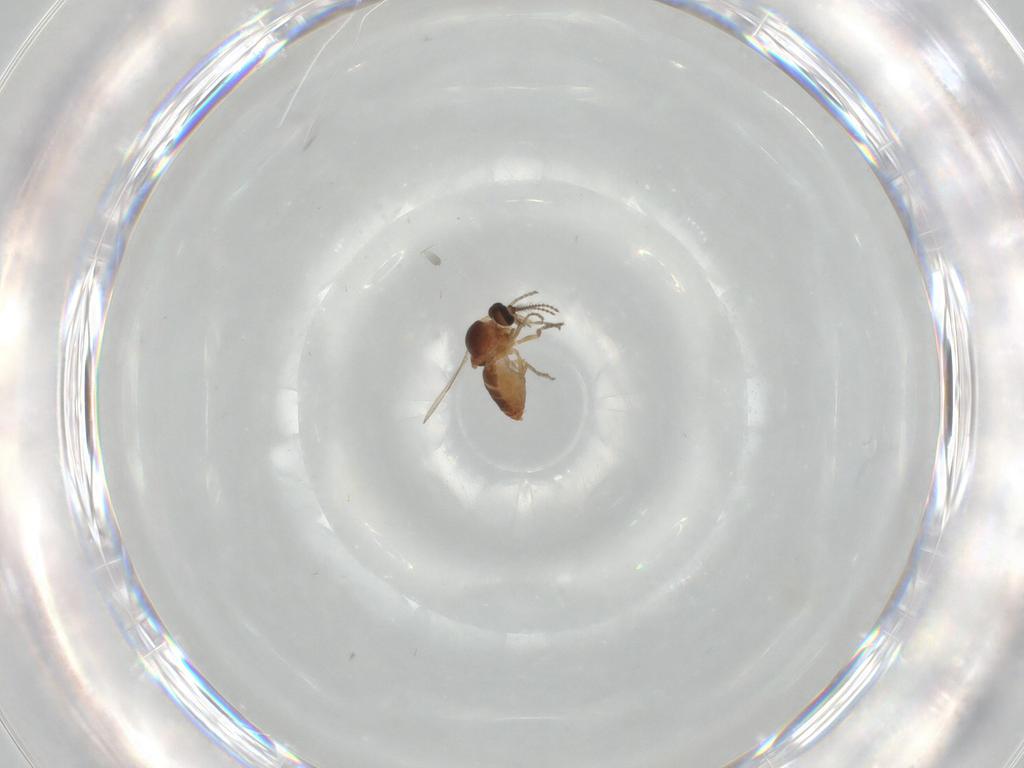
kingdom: Animalia
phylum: Arthropoda
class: Insecta
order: Diptera
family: Ceratopogonidae
